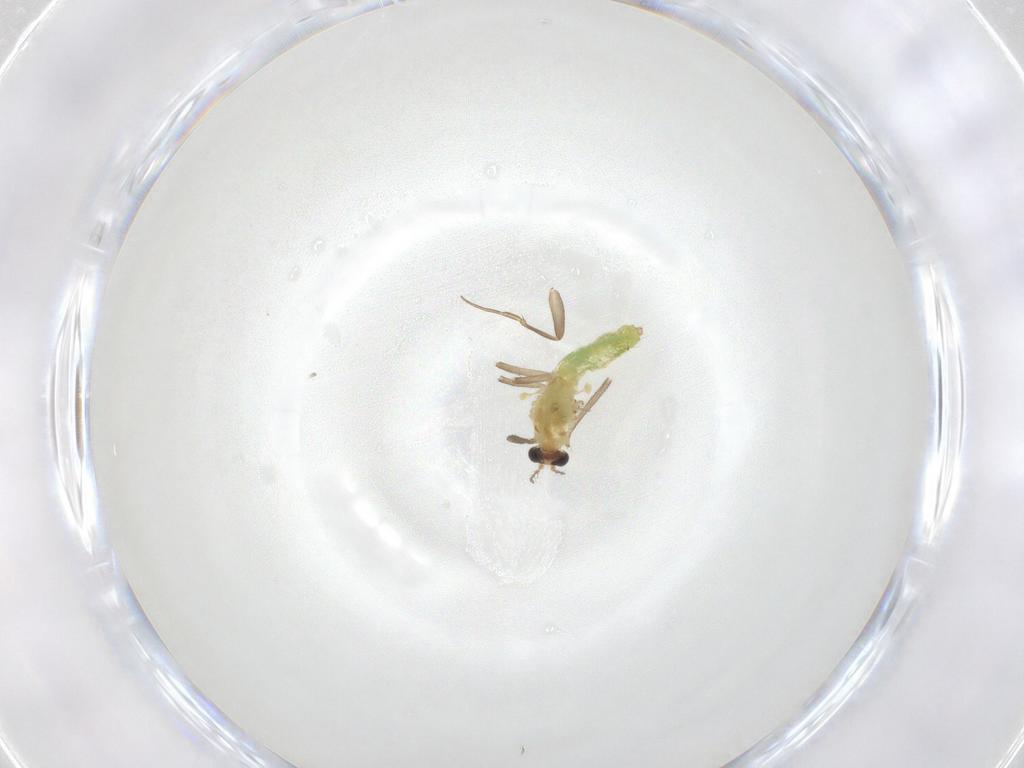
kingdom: Animalia
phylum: Arthropoda
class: Insecta
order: Diptera
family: Chironomidae
